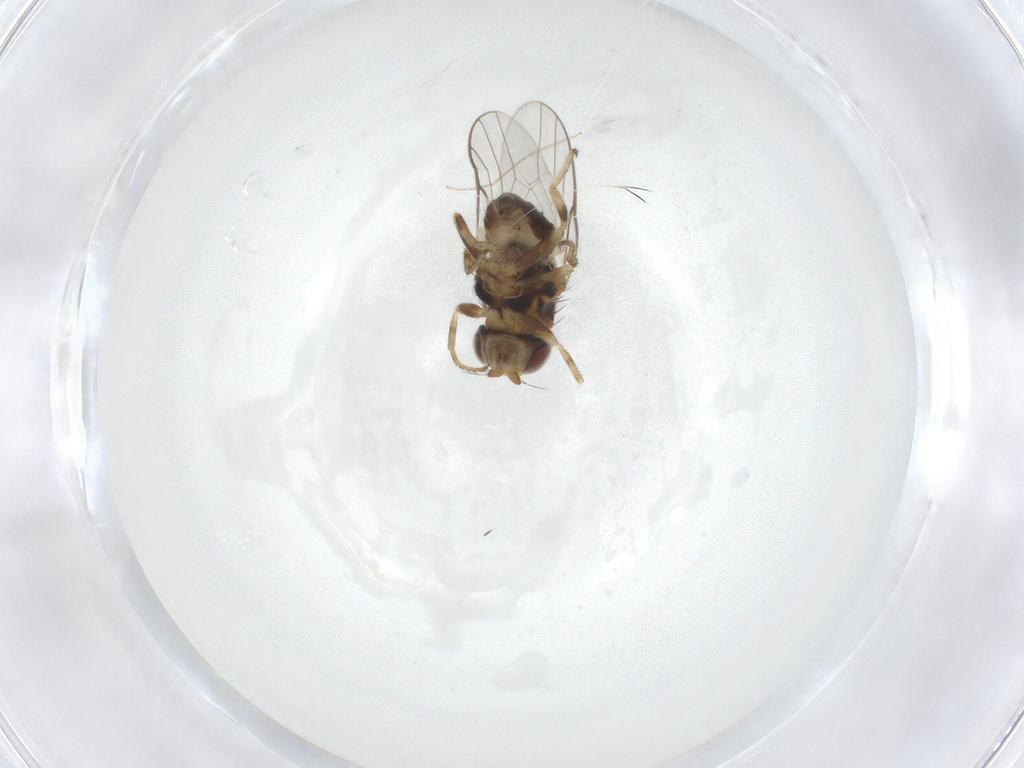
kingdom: Animalia
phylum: Arthropoda
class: Insecta
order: Diptera
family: Chloropidae
